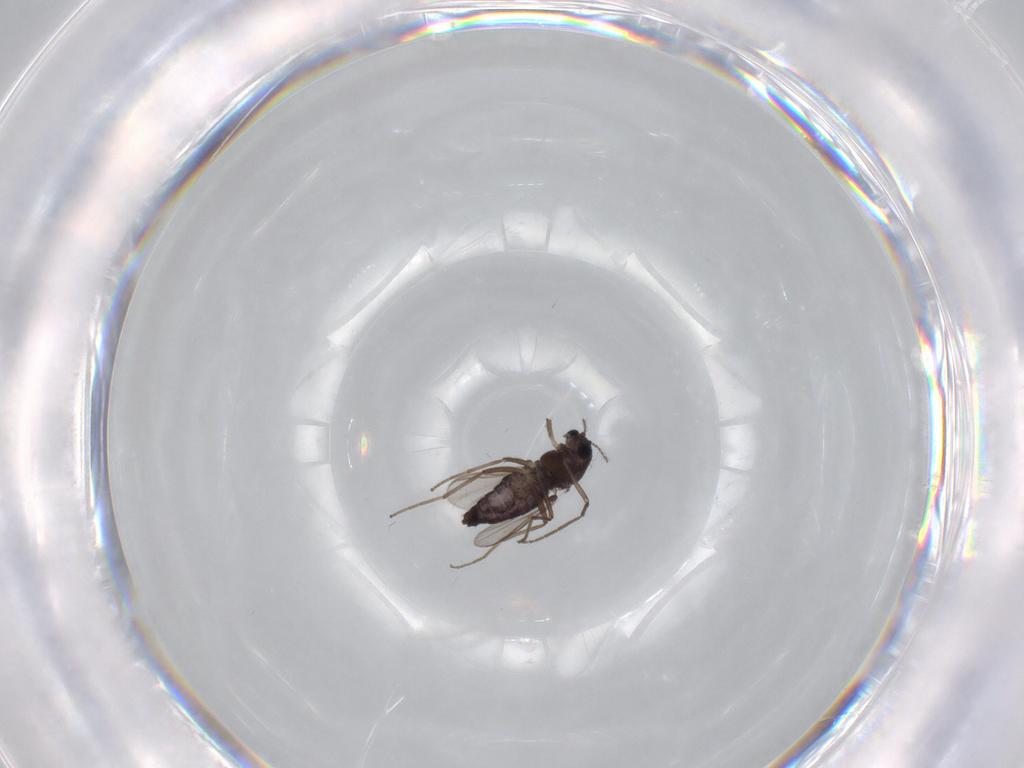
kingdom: Animalia
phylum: Arthropoda
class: Insecta
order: Diptera
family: Chironomidae
